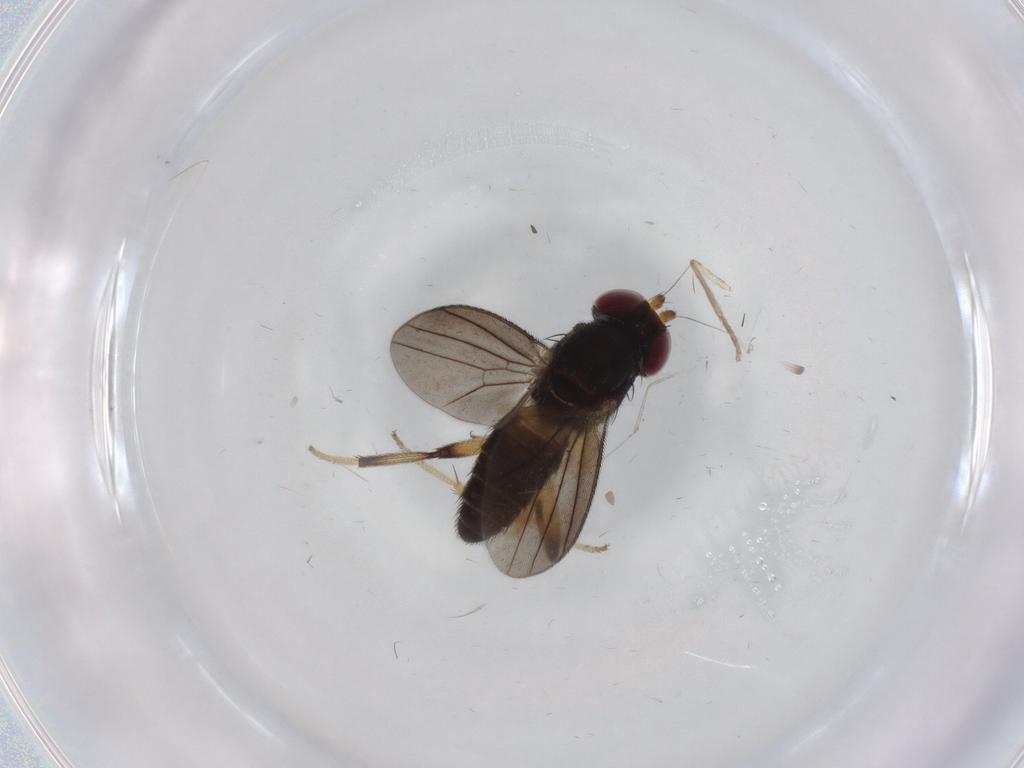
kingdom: Animalia
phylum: Arthropoda
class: Insecta
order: Diptera
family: Clusiidae
